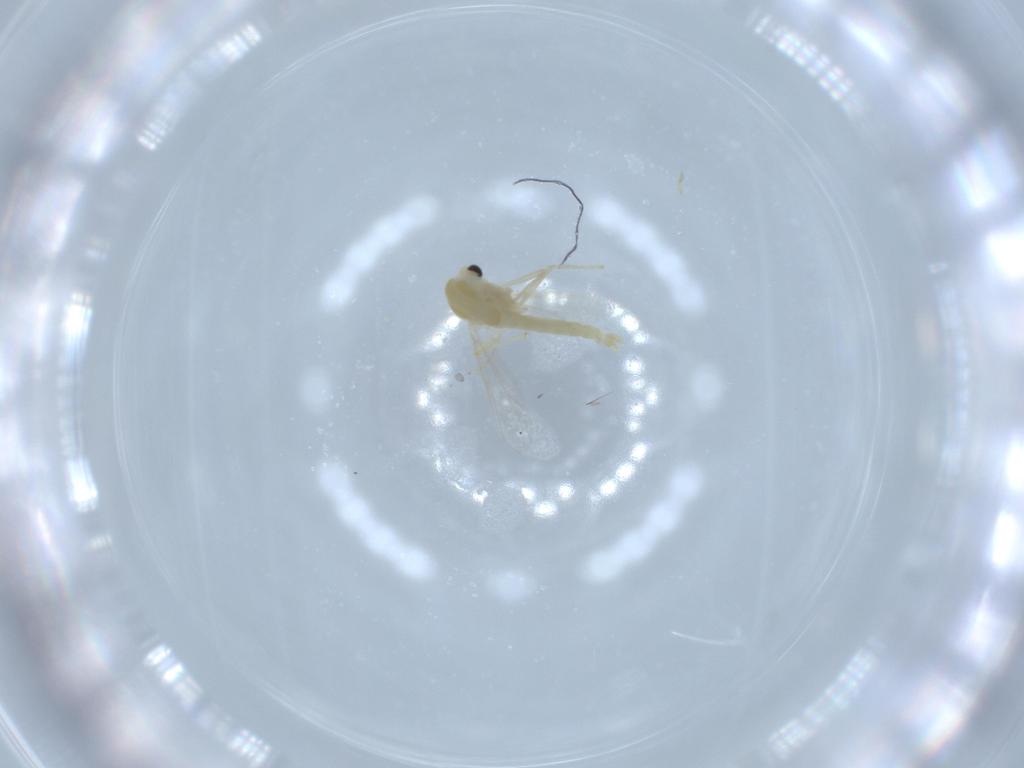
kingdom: Animalia
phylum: Arthropoda
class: Insecta
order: Diptera
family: Chironomidae
